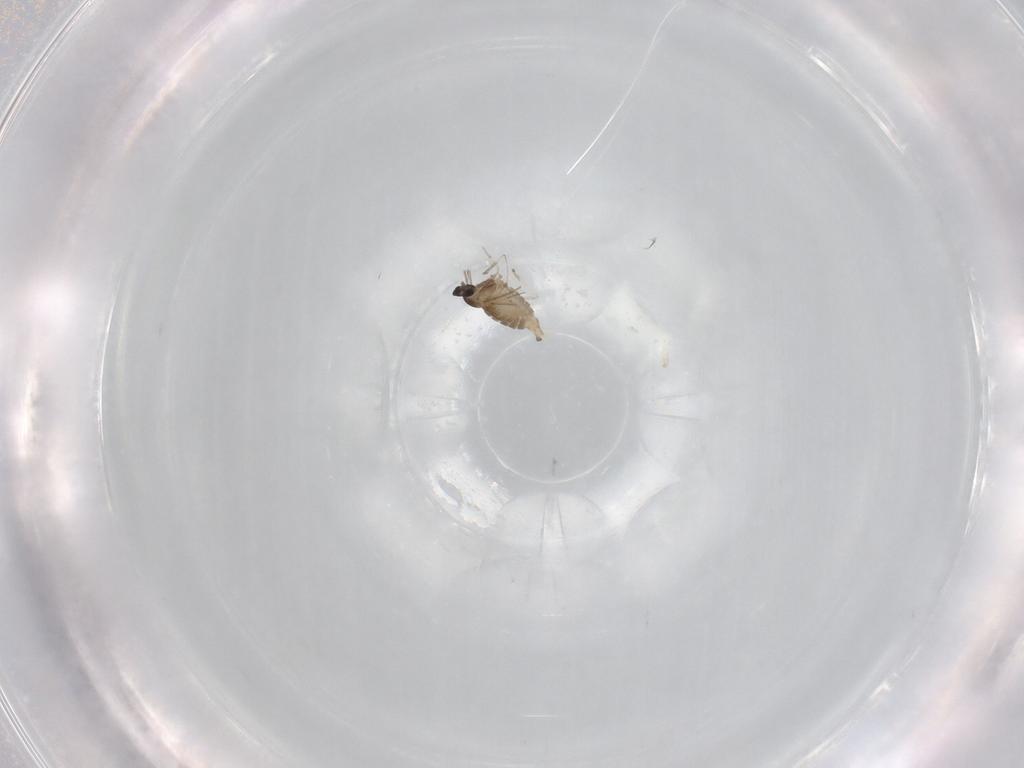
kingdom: Animalia
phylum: Arthropoda
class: Insecta
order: Diptera
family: Cecidomyiidae
